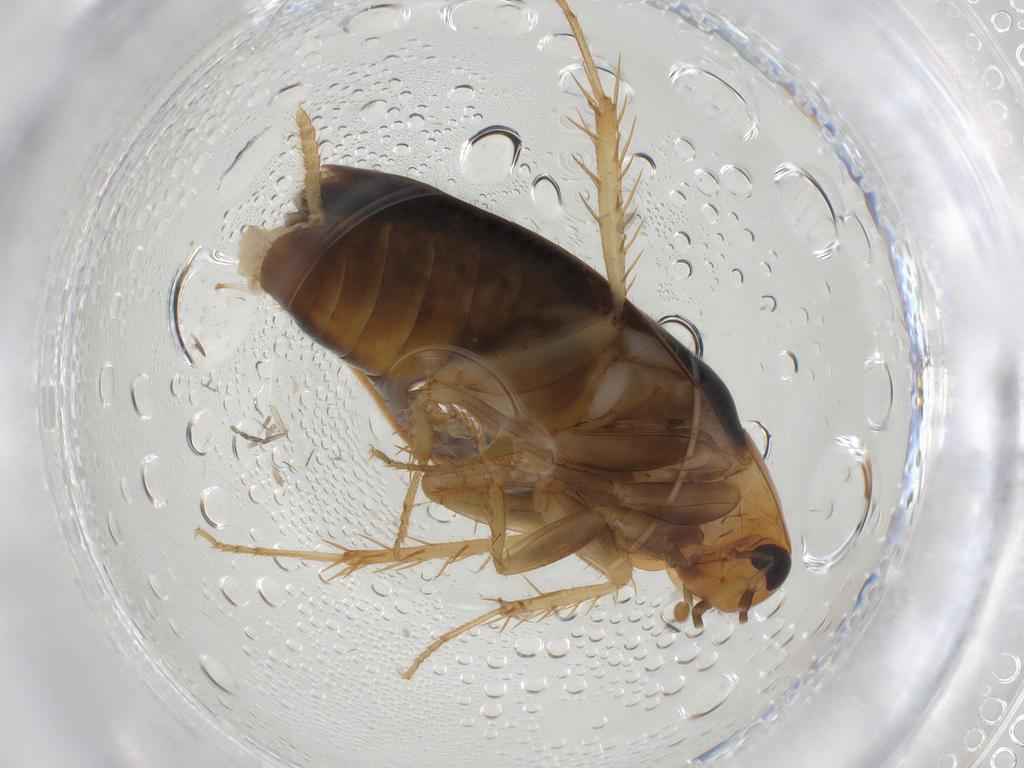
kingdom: Animalia
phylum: Arthropoda
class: Insecta
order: Blattodea
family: Tryonicidae
